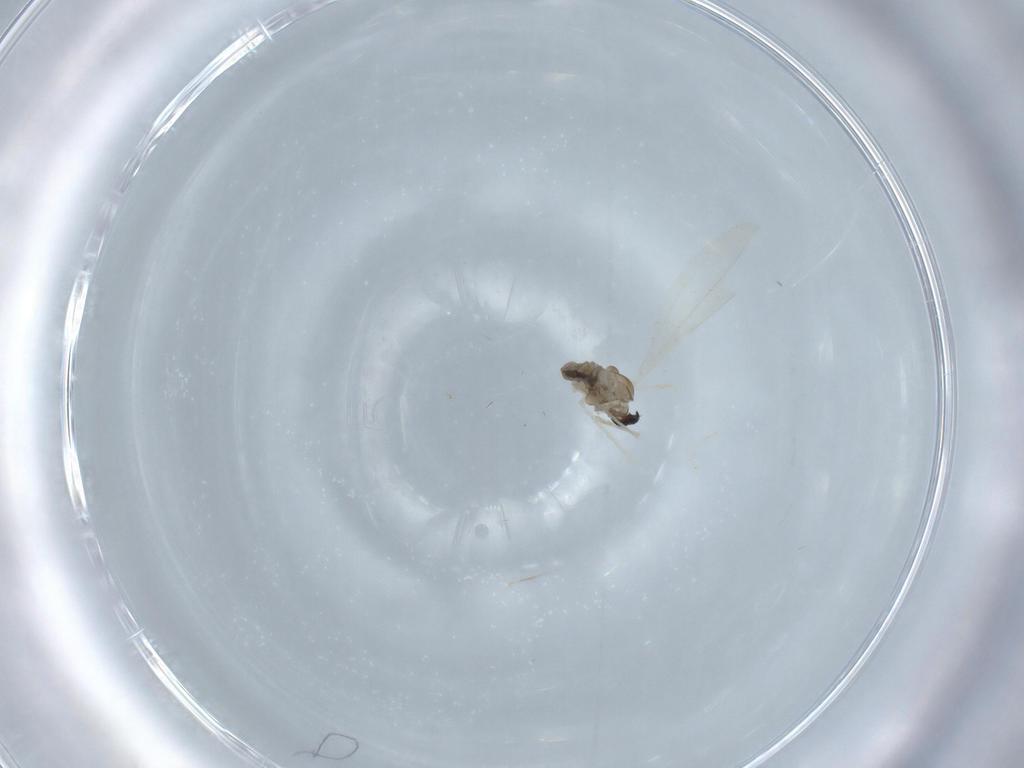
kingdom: Animalia
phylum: Arthropoda
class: Insecta
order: Diptera
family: Cecidomyiidae
